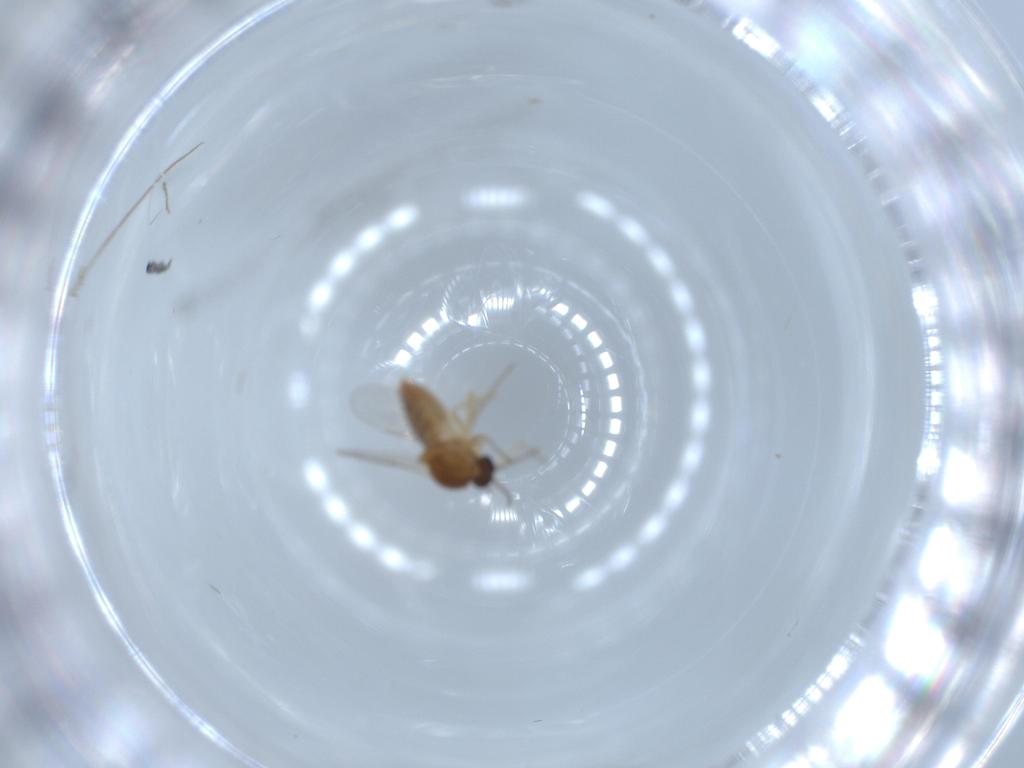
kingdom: Animalia
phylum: Arthropoda
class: Insecta
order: Diptera
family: Ceratopogonidae
